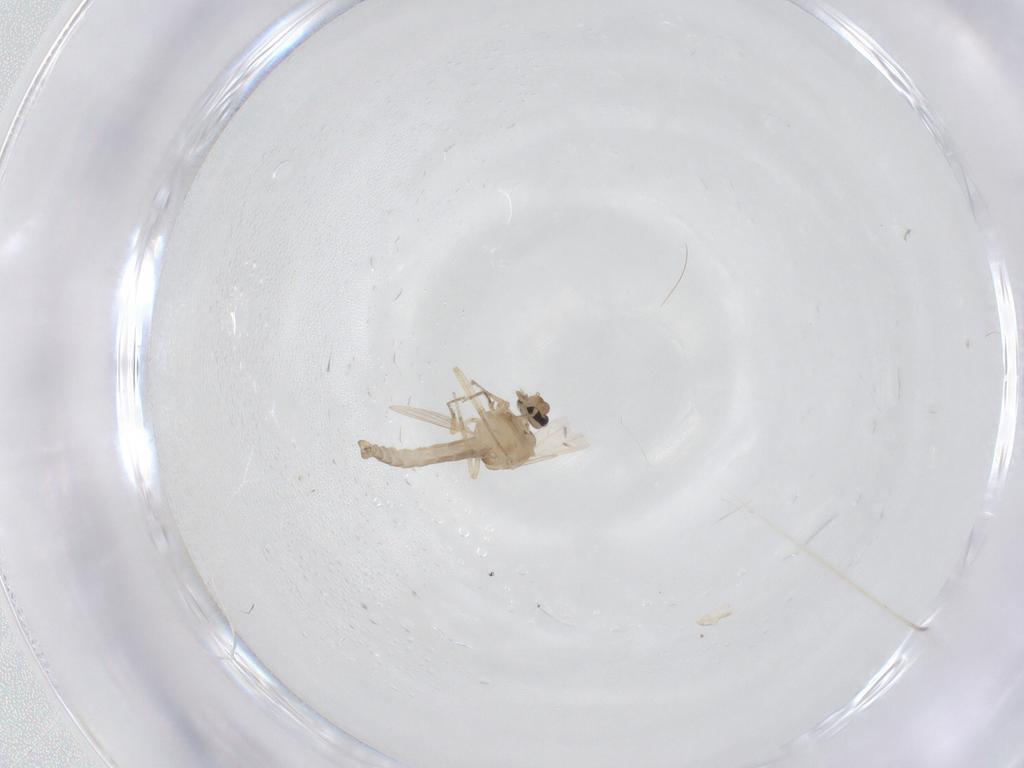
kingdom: Animalia
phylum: Arthropoda
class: Insecta
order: Diptera
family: Ceratopogonidae
